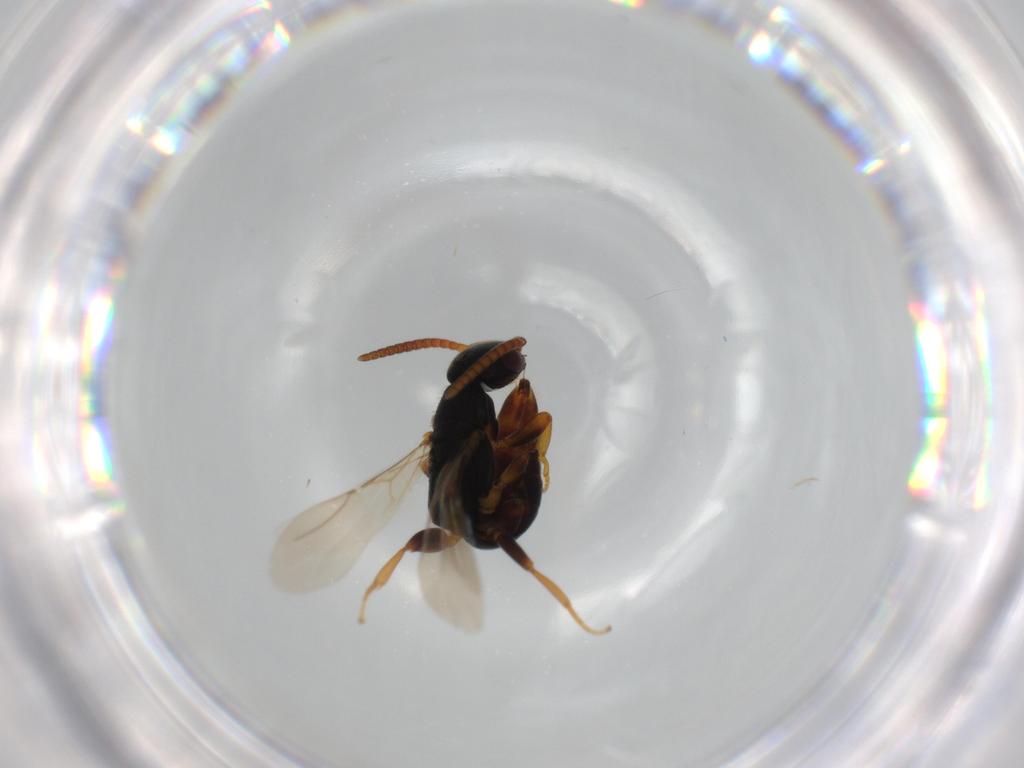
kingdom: Animalia
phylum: Arthropoda
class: Insecta
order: Hymenoptera
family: Bethylidae
